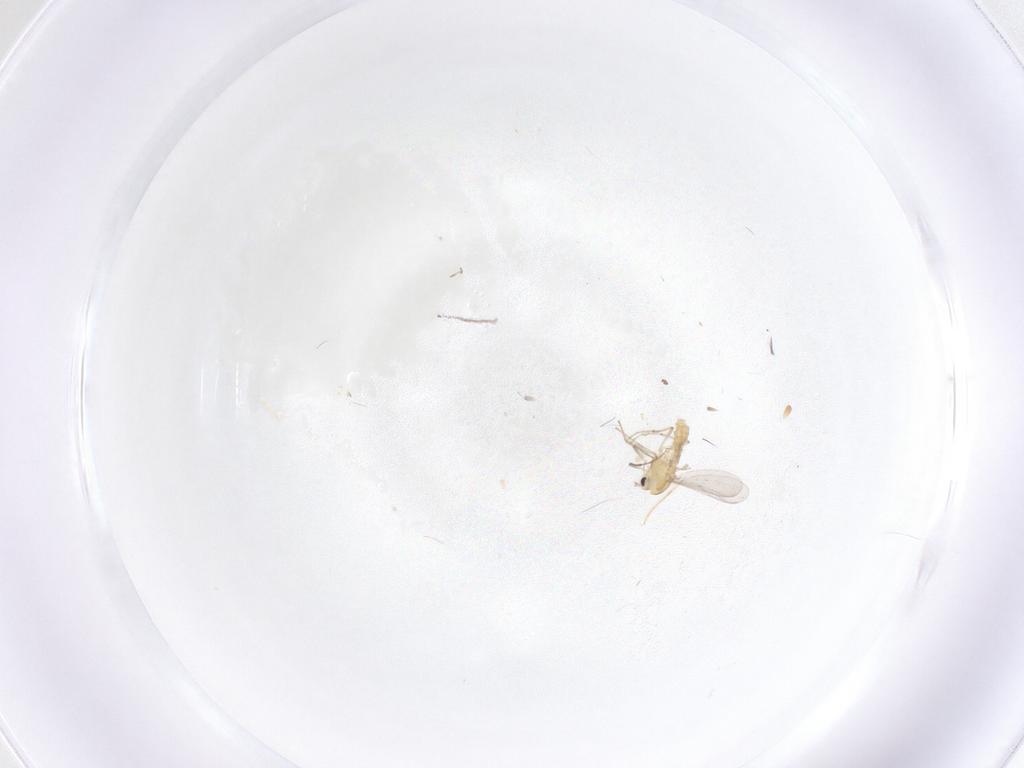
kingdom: Animalia
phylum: Arthropoda
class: Insecta
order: Diptera
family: Chironomidae
